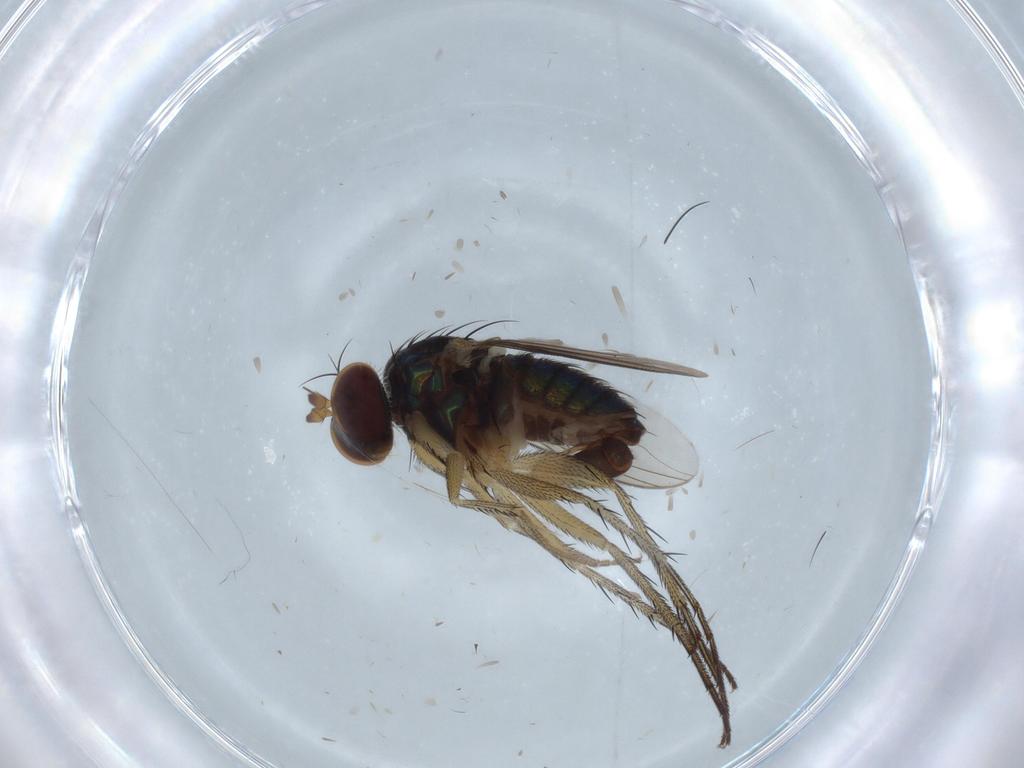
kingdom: Animalia
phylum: Arthropoda
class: Insecta
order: Diptera
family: Dolichopodidae
